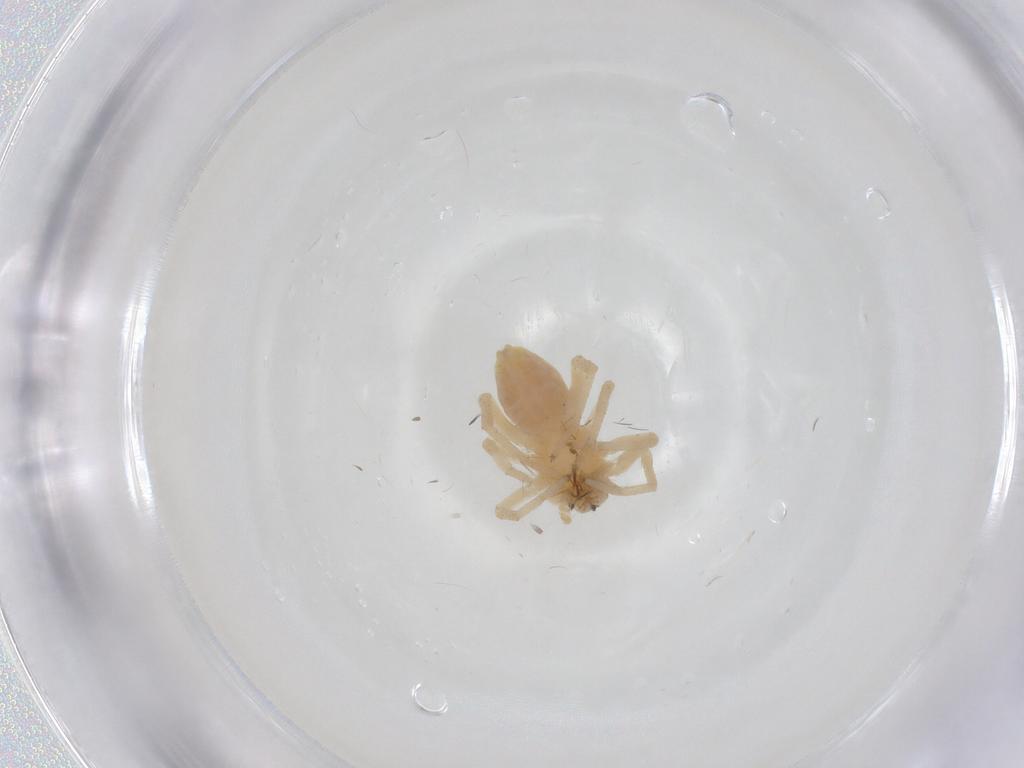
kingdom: Animalia
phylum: Arthropoda
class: Arachnida
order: Araneae
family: Anyphaenidae
